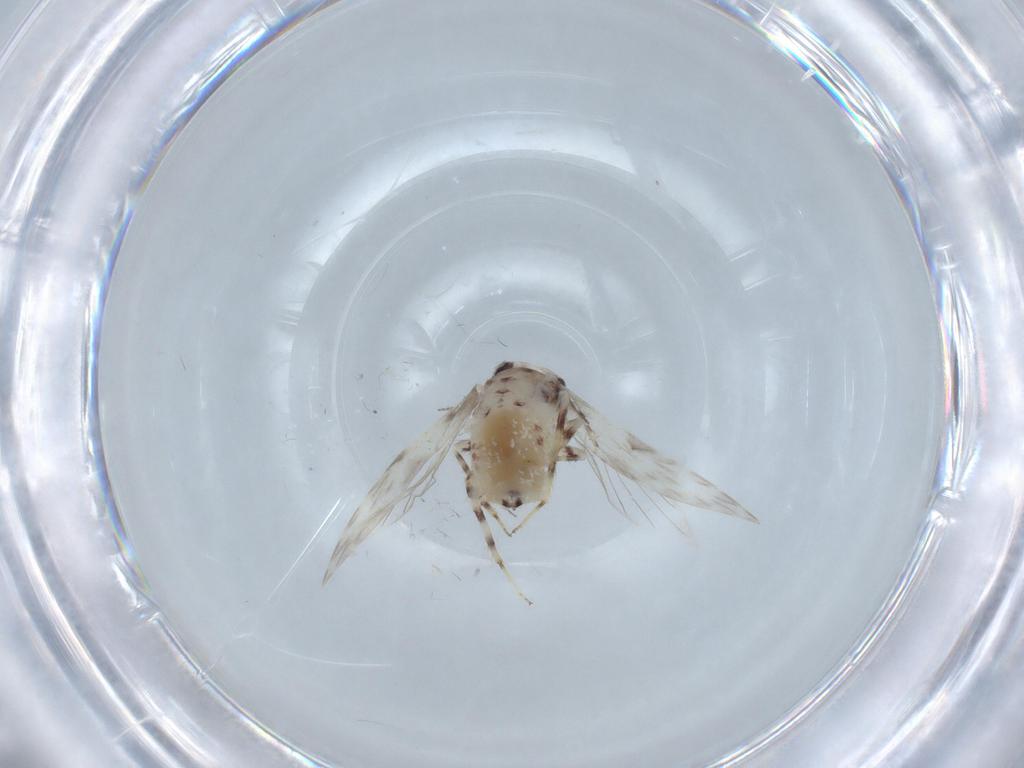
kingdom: Animalia
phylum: Arthropoda
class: Insecta
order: Psocodea
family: Lepidopsocidae
